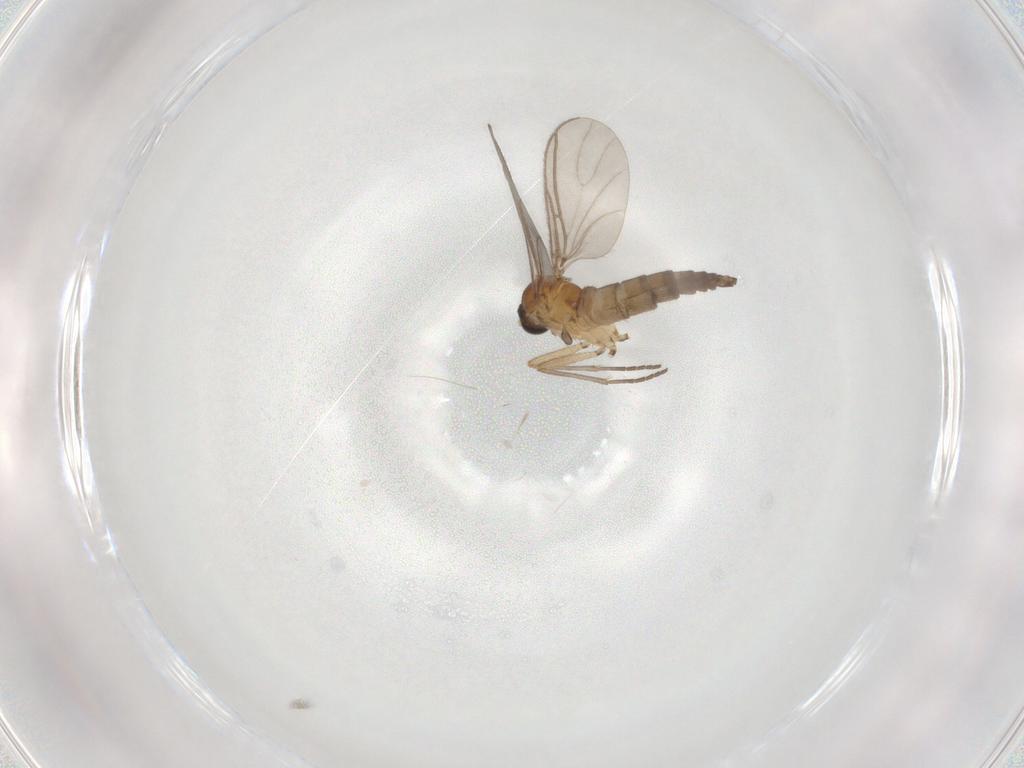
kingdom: Animalia
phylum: Arthropoda
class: Insecta
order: Diptera
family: Sciaridae
